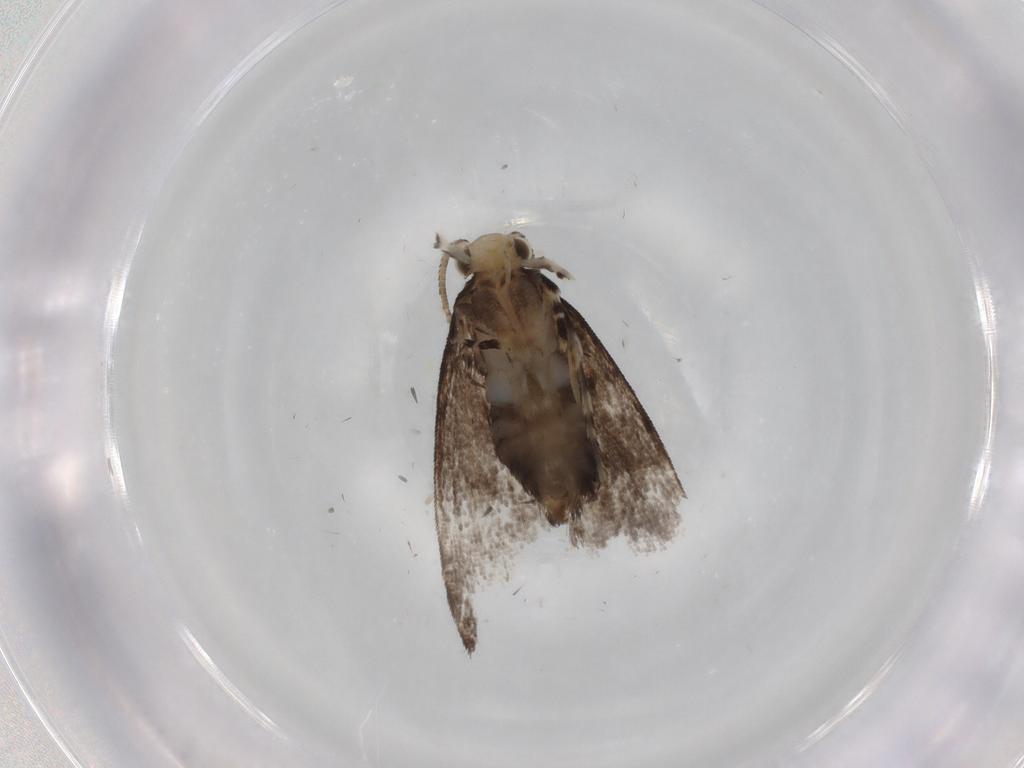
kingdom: Animalia
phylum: Arthropoda
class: Insecta
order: Lepidoptera
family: Dryadaulidae
